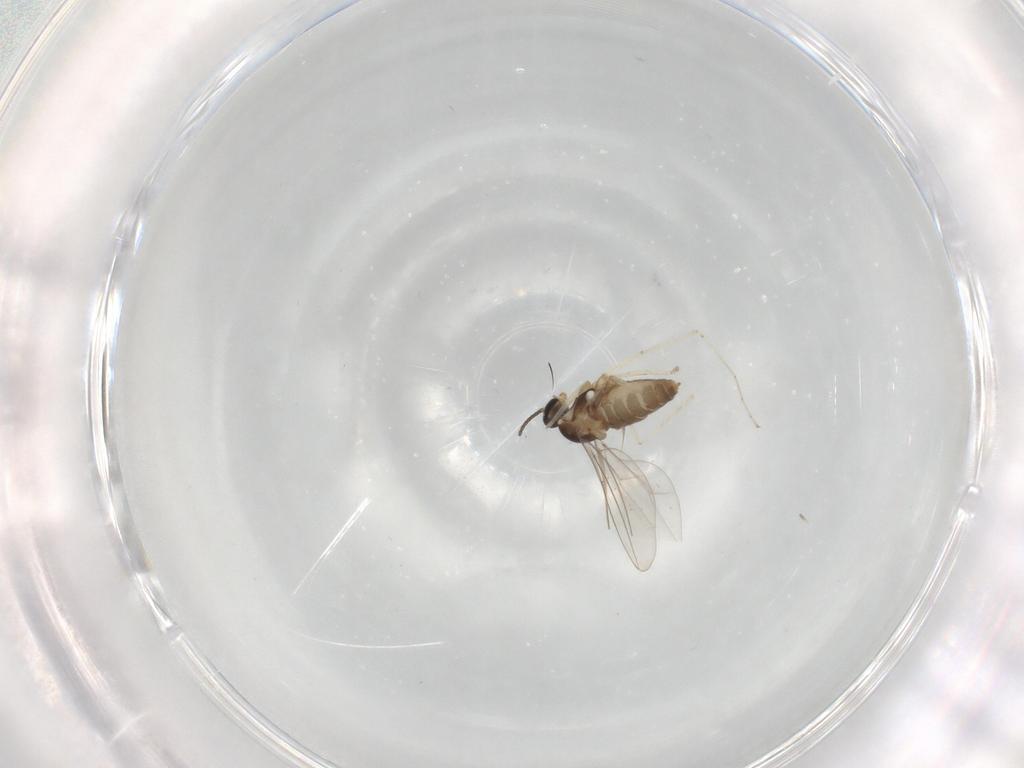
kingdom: Animalia
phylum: Arthropoda
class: Insecta
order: Diptera
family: Cecidomyiidae
